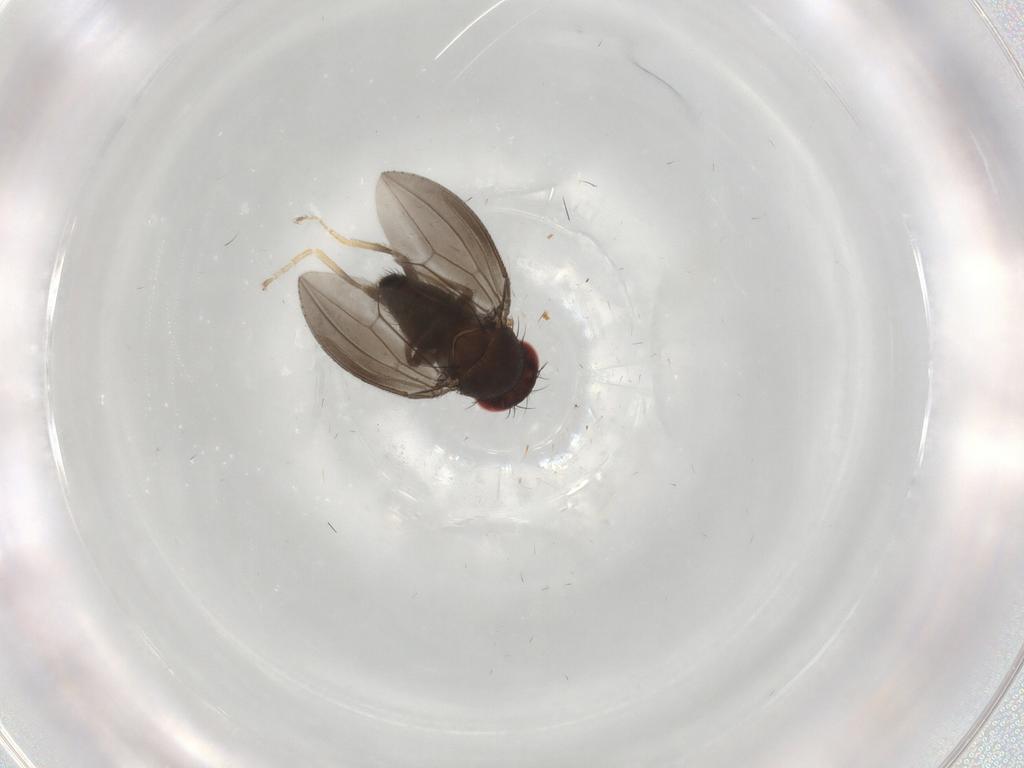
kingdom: Animalia
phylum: Arthropoda
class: Insecta
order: Diptera
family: Drosophilidae
